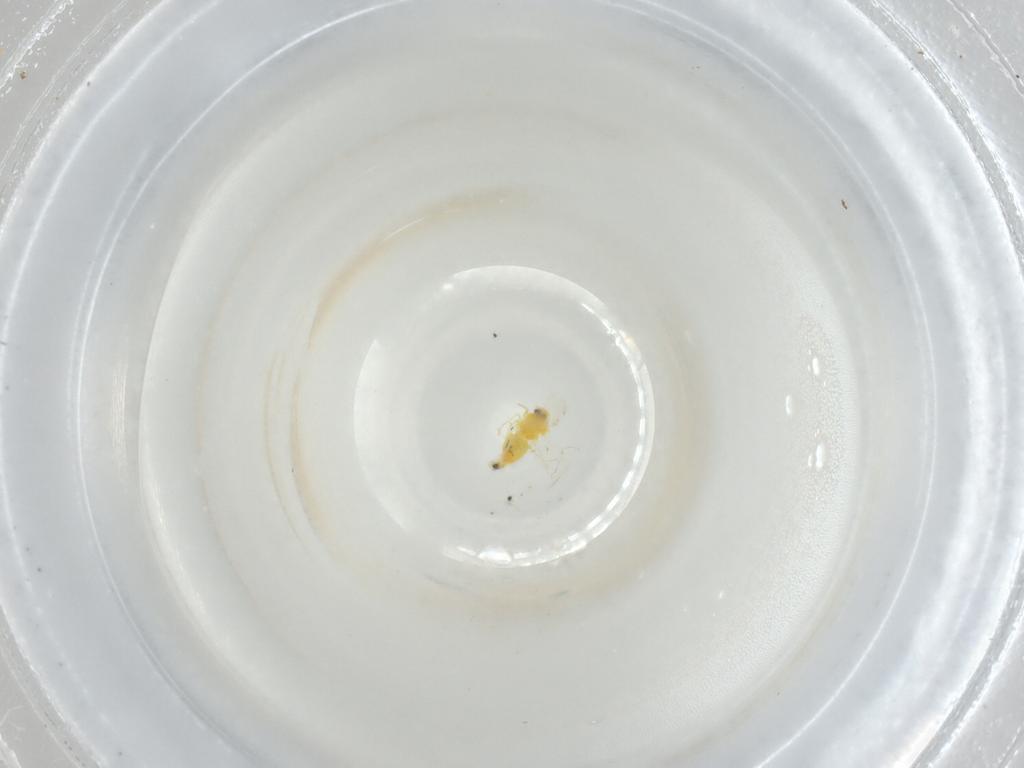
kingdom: Animalia
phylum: Arthropoda
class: Insecta
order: Hemiptera
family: Aleyrodidae
